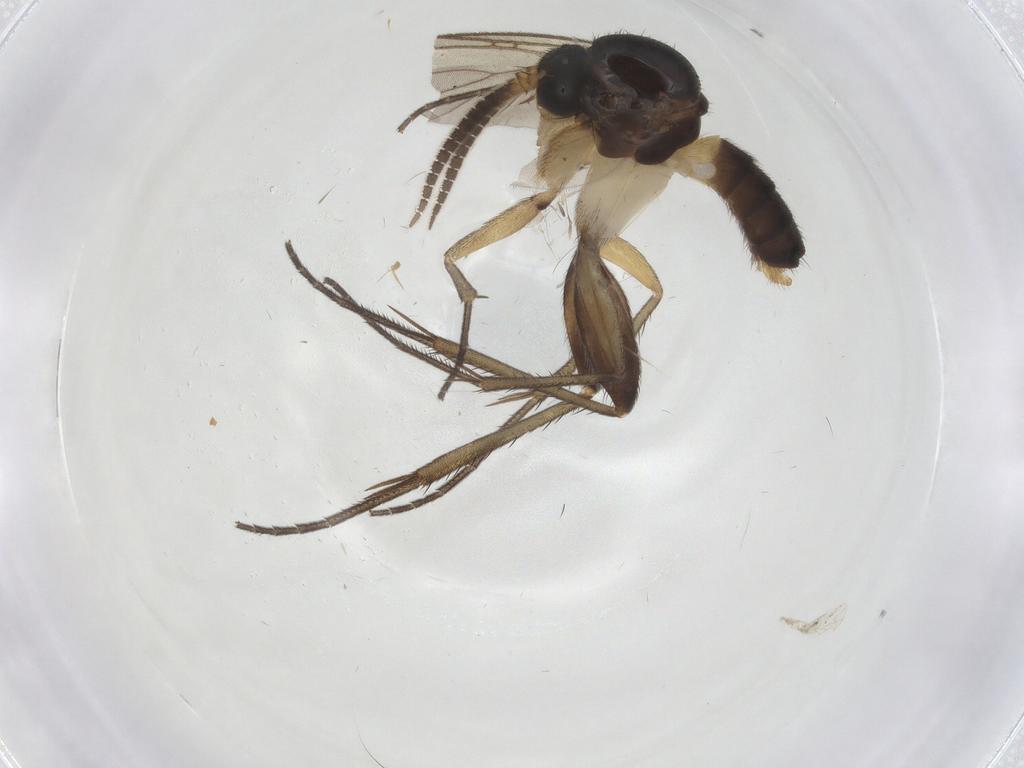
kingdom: Animalia
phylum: Arthropoda
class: Insecta
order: Diptera
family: Mycetophilidae
